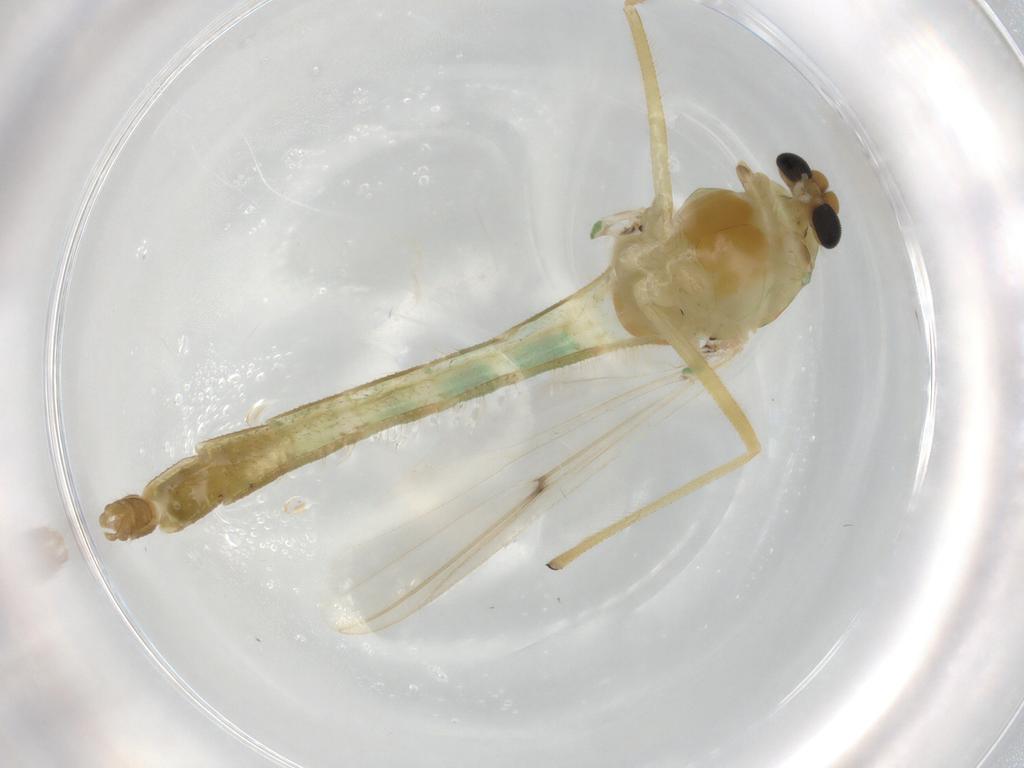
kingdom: Animalia
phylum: Arthropoda
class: Insecta
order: Diptera
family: Chironomidae
